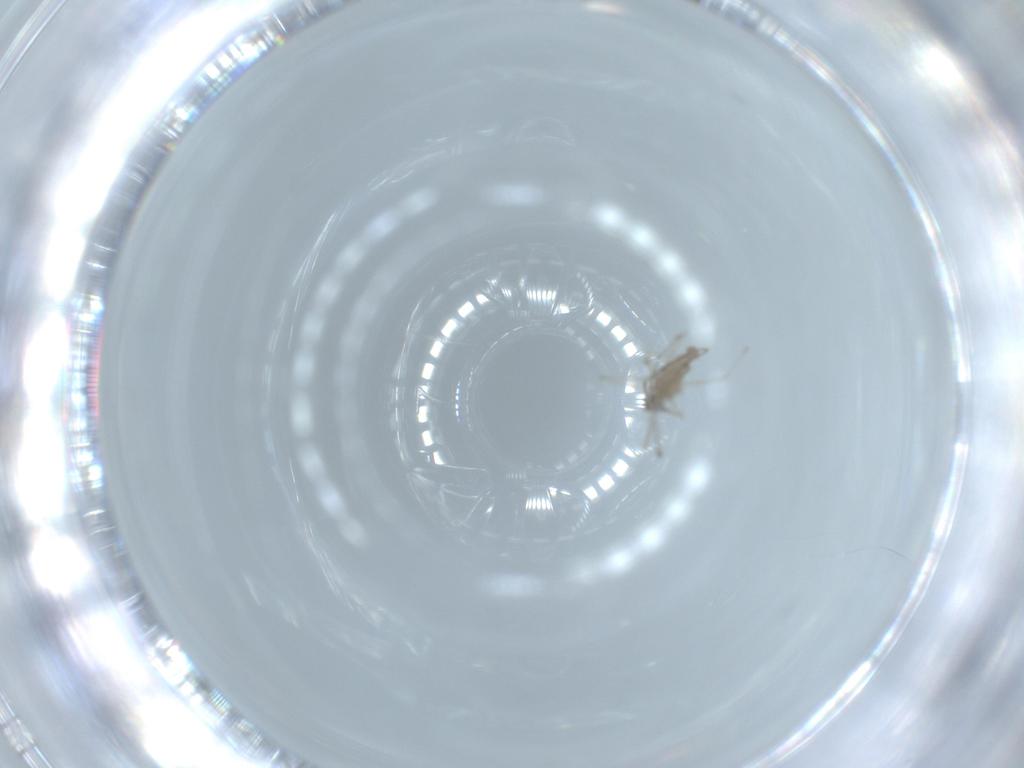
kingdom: Animalia
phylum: Arthropoda
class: Insecta
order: Diptera
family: Cecidomyiidae
